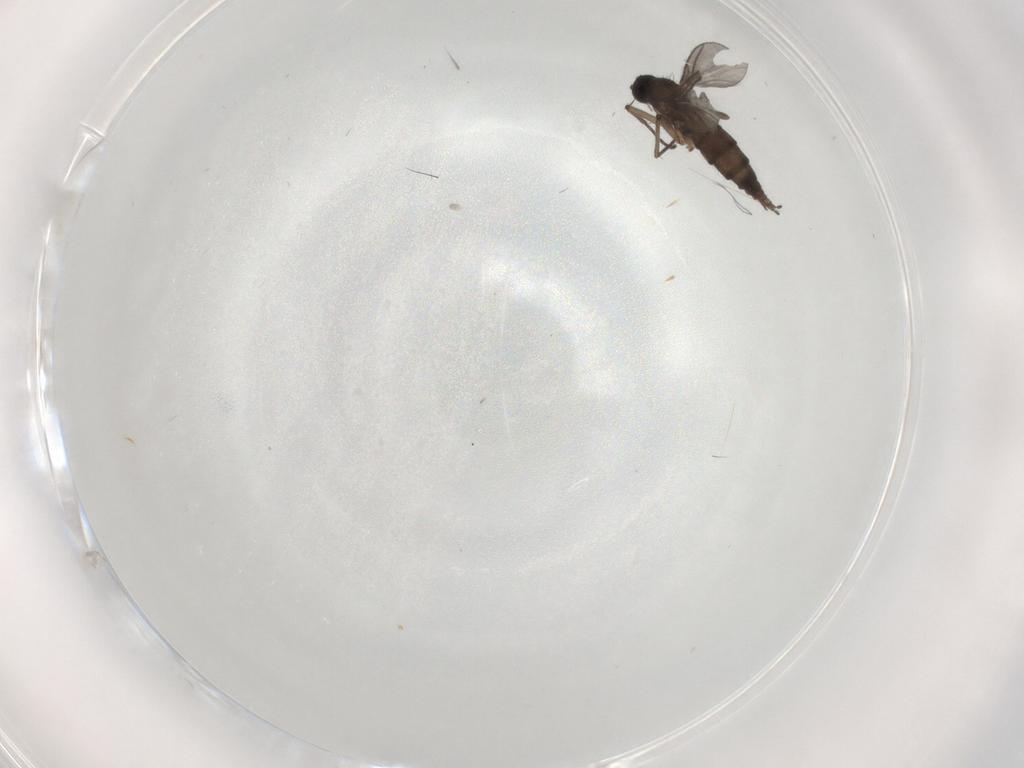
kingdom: Animalia
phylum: Arthropoda
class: Insecta
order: Diptera
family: Sciaridae
